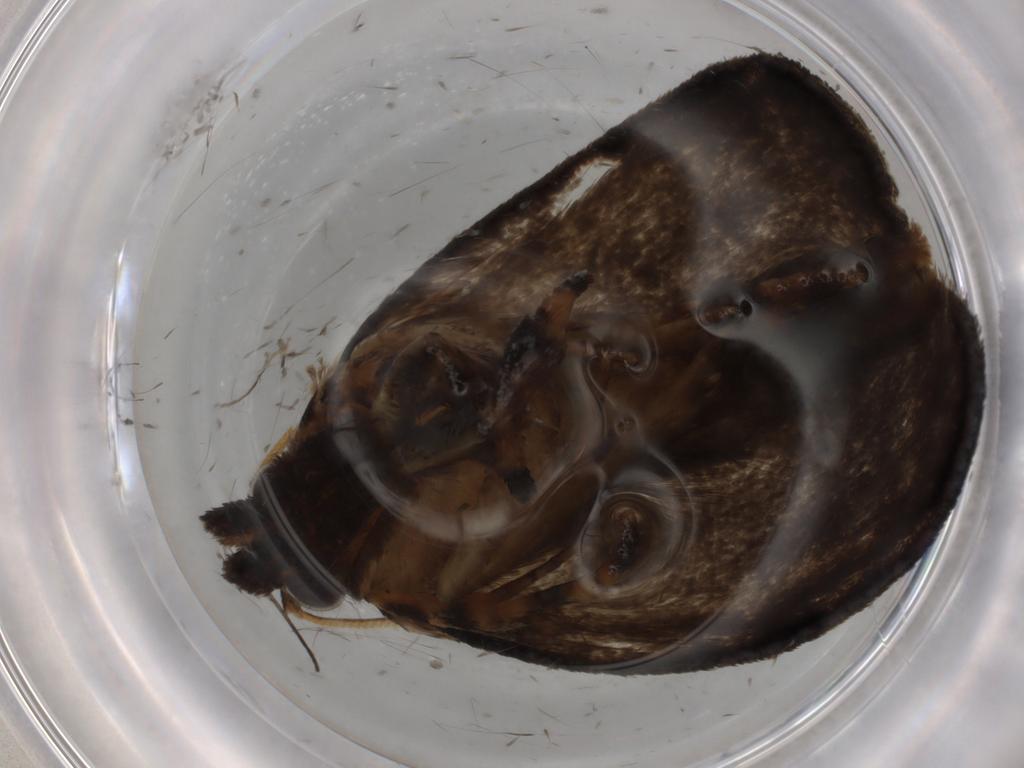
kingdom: Animalia
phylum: Arthropoda
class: Insecta
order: Lepidoptera
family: Tineidae
